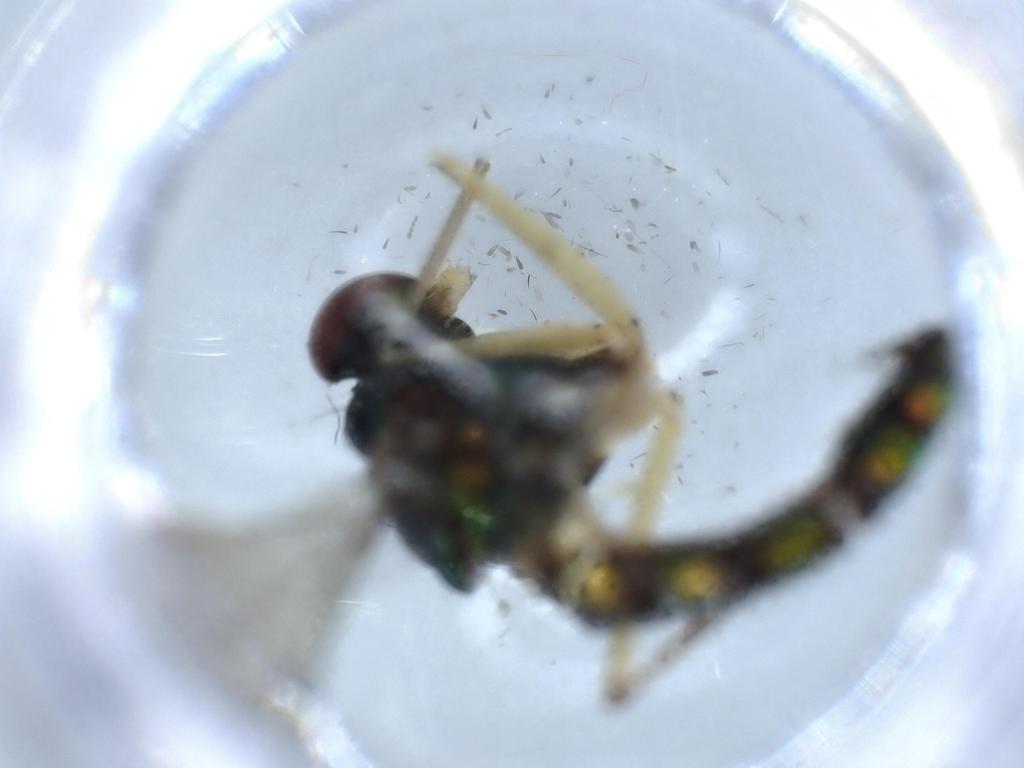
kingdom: Animalia
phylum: Arthropoda
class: Insecta
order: Diptera
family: Dolichopodidae
